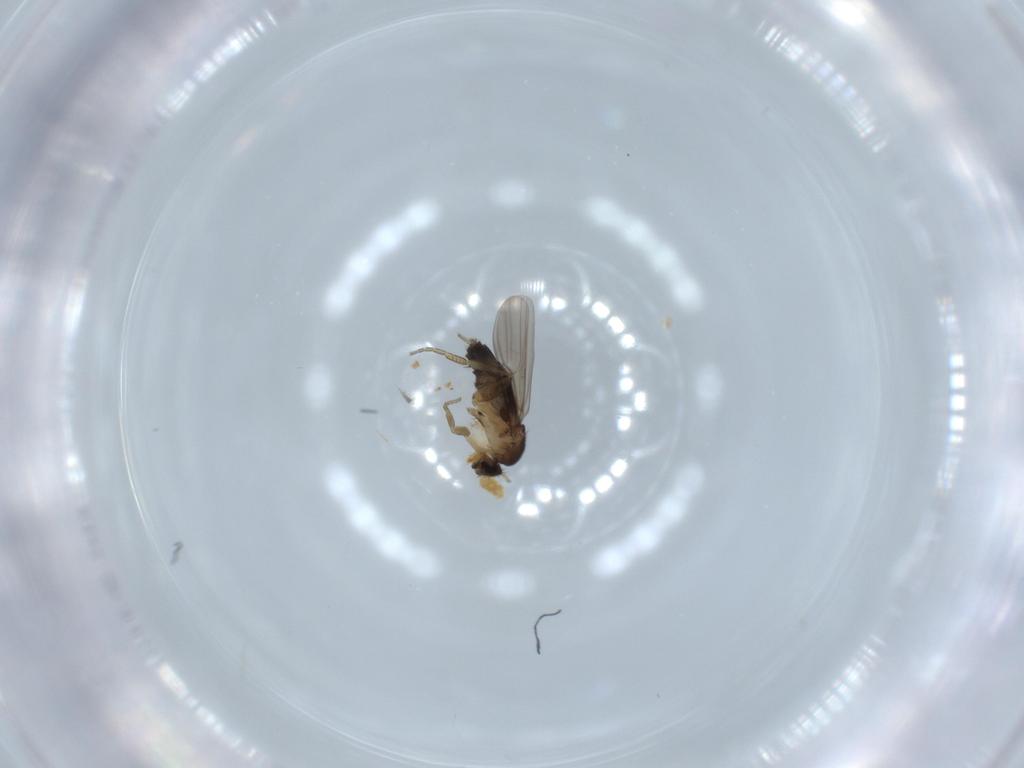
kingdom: Animalia
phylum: Arthropoda
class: Insecta
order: Diptera
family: Phoridae
